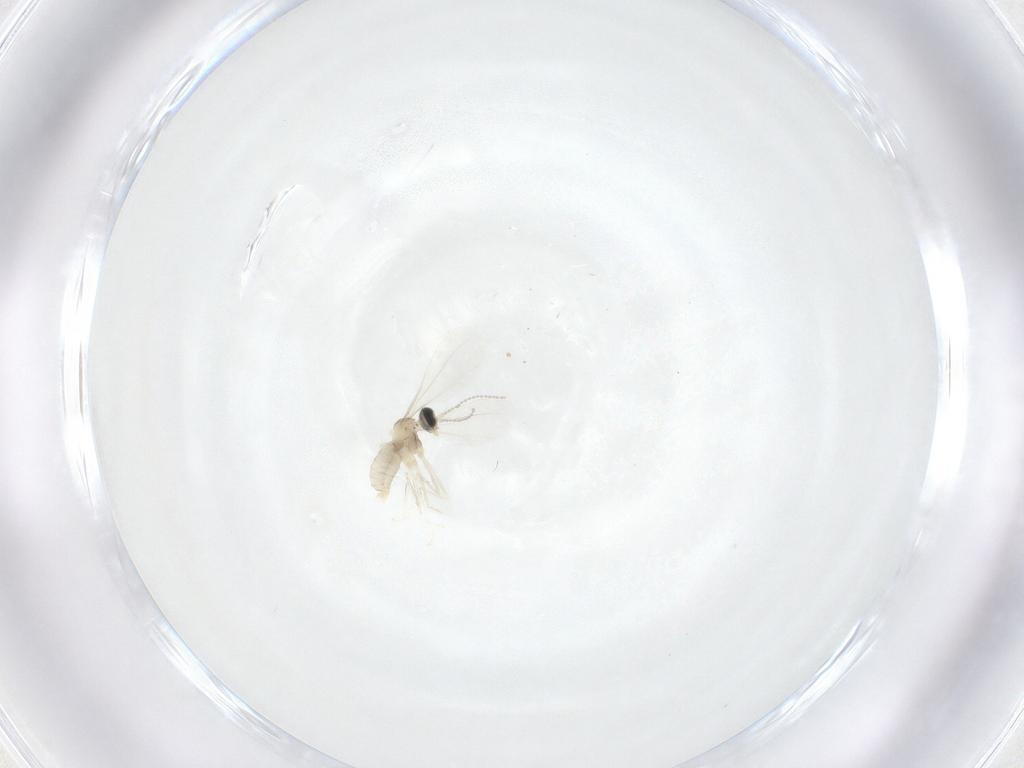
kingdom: Animalia
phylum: Arthropoda
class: Insecta
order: Diptera
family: Cecidomyiidae
